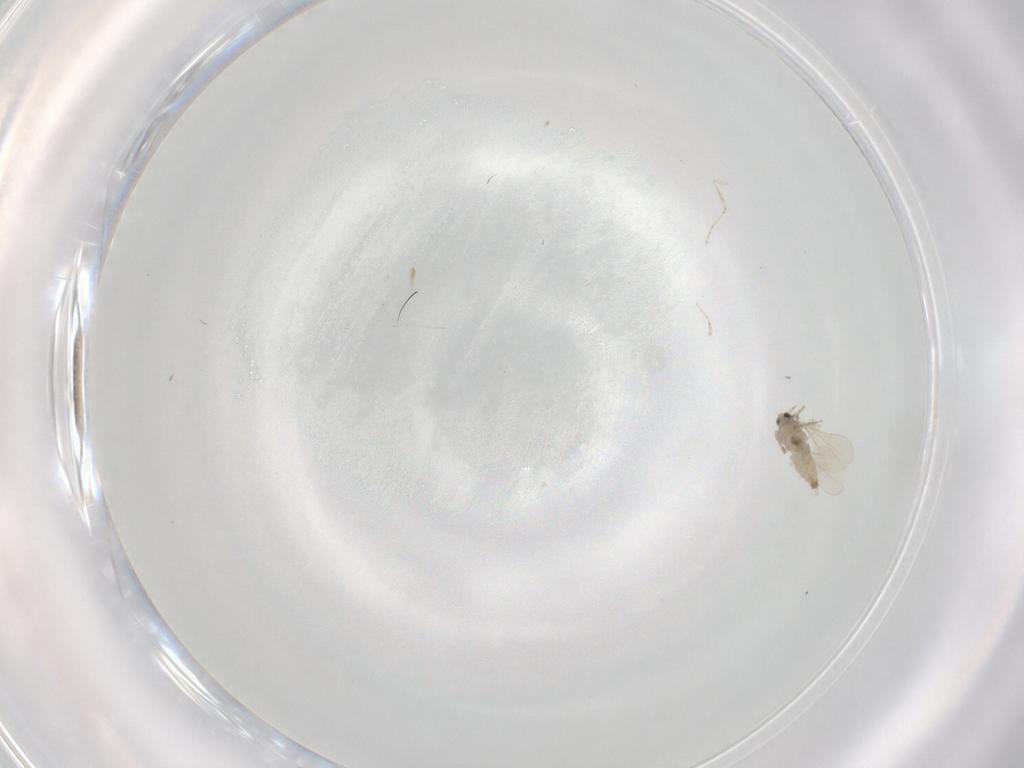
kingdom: Animalia
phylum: Arthropoda
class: Insecta
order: Diptera
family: Cecidomyiidae
